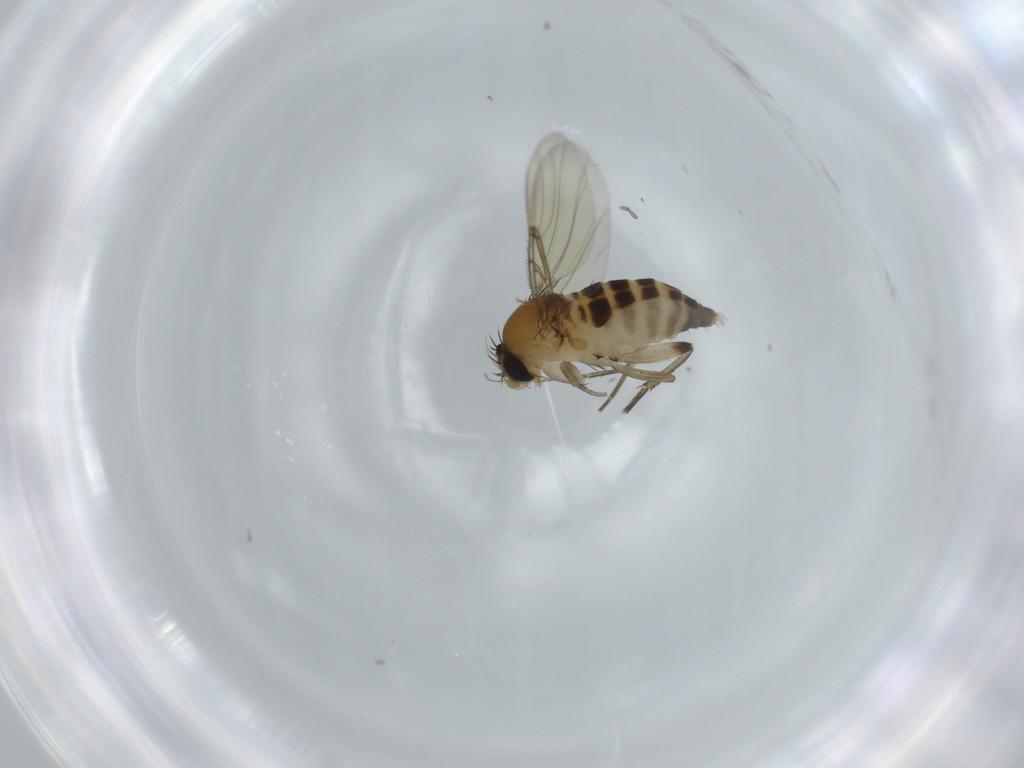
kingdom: Animalia
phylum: Arthropoda
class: Insecta
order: Diptera
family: Phoridae
